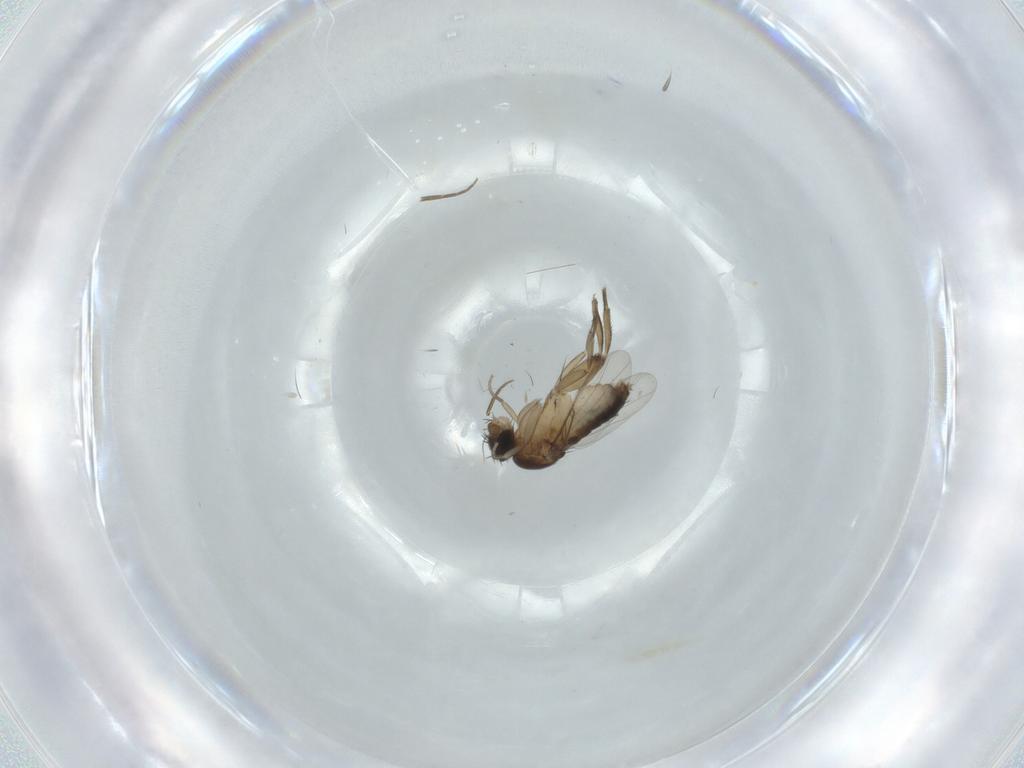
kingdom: Animalia
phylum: Arthropoda
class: Insecta
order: Diptera
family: Phoridae
